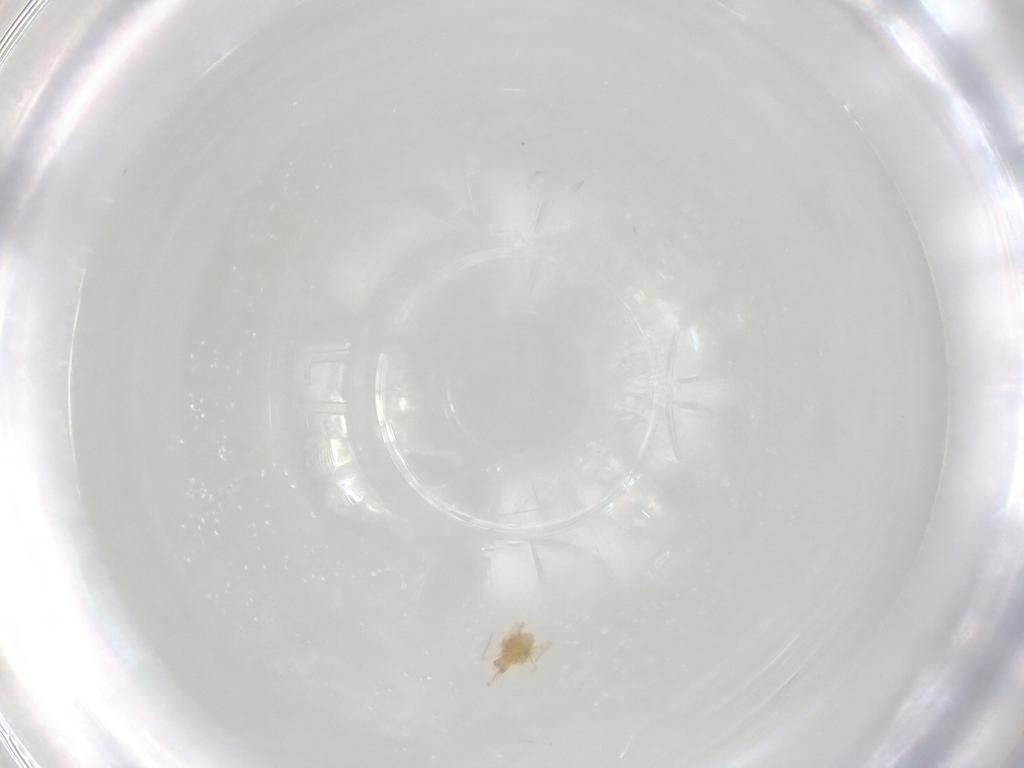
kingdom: Animalia
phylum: Arthropoda
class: Arachnida
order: Trombidiformes
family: Cunaxidae
